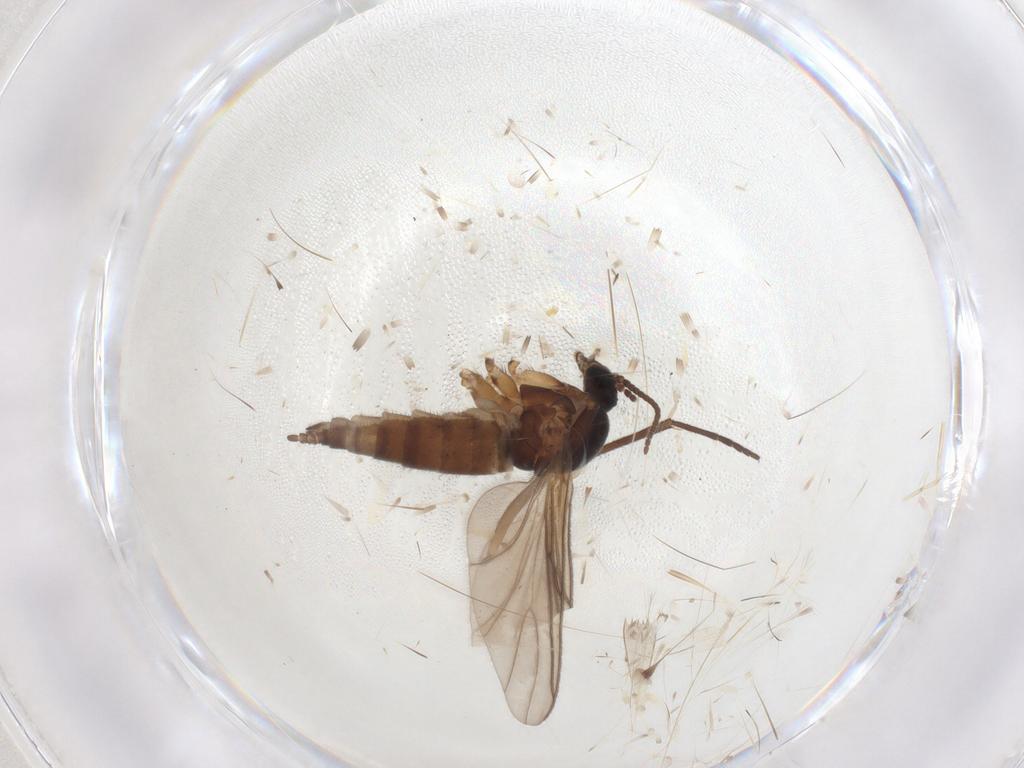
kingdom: Animalia
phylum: Arthropoda
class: Insecta
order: Diptera
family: Sciaridae
